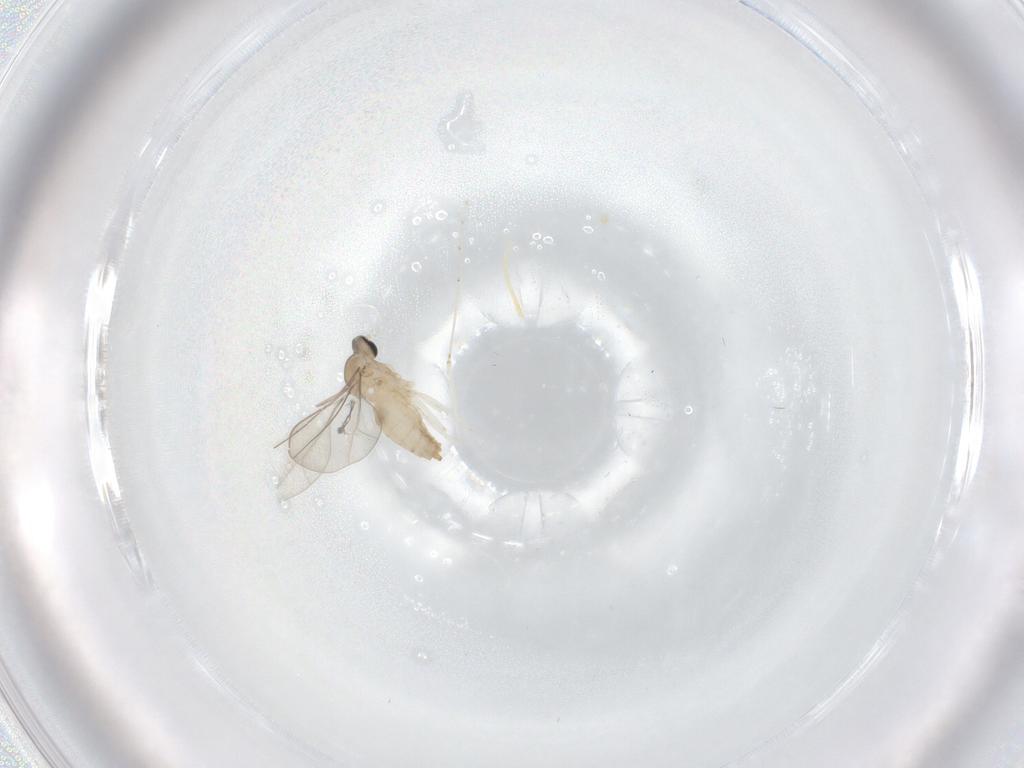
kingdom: Animalia
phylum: Arthropoda
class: Insecta
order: Diptera
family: Cecidomyiidae
